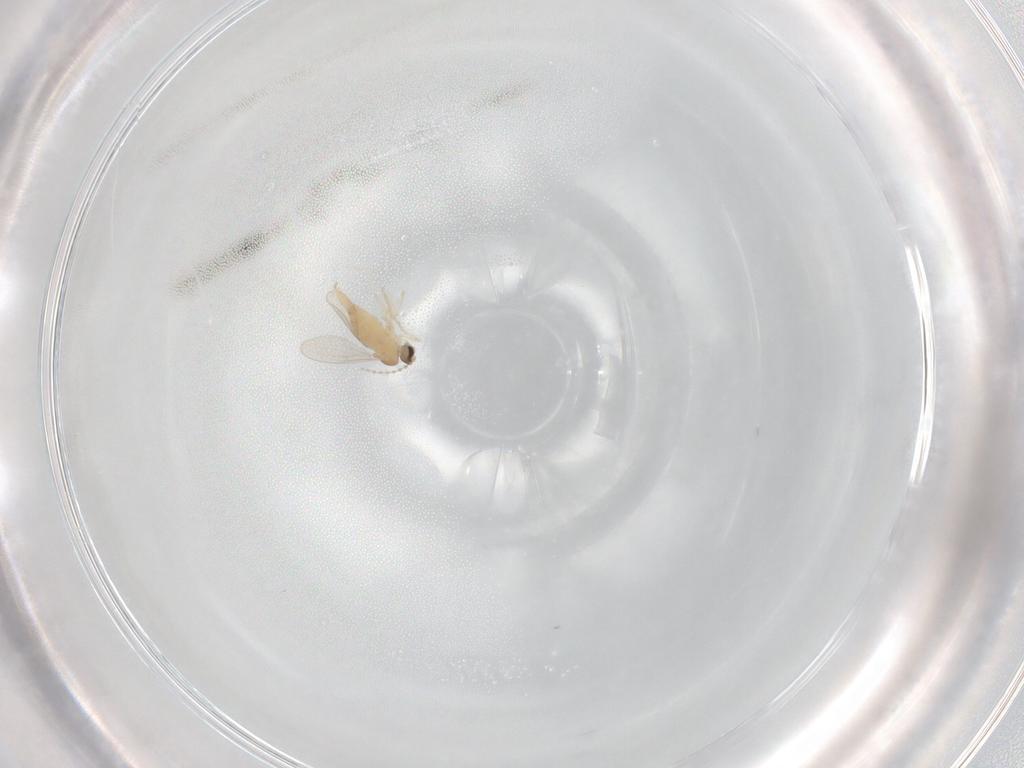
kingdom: Animalia
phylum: Arthropoda
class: Insecta
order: Diptera
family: Cecidomyiidae
